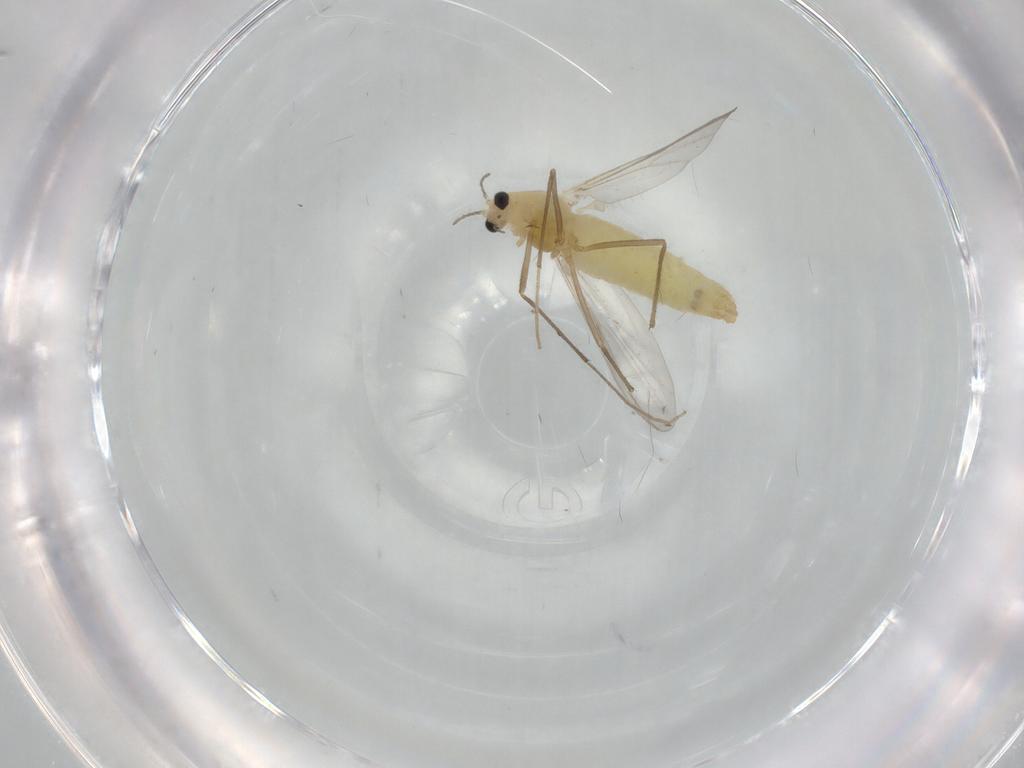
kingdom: Animalia
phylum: Arthropoda
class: Insecta
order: Diptera
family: Chironomidae
